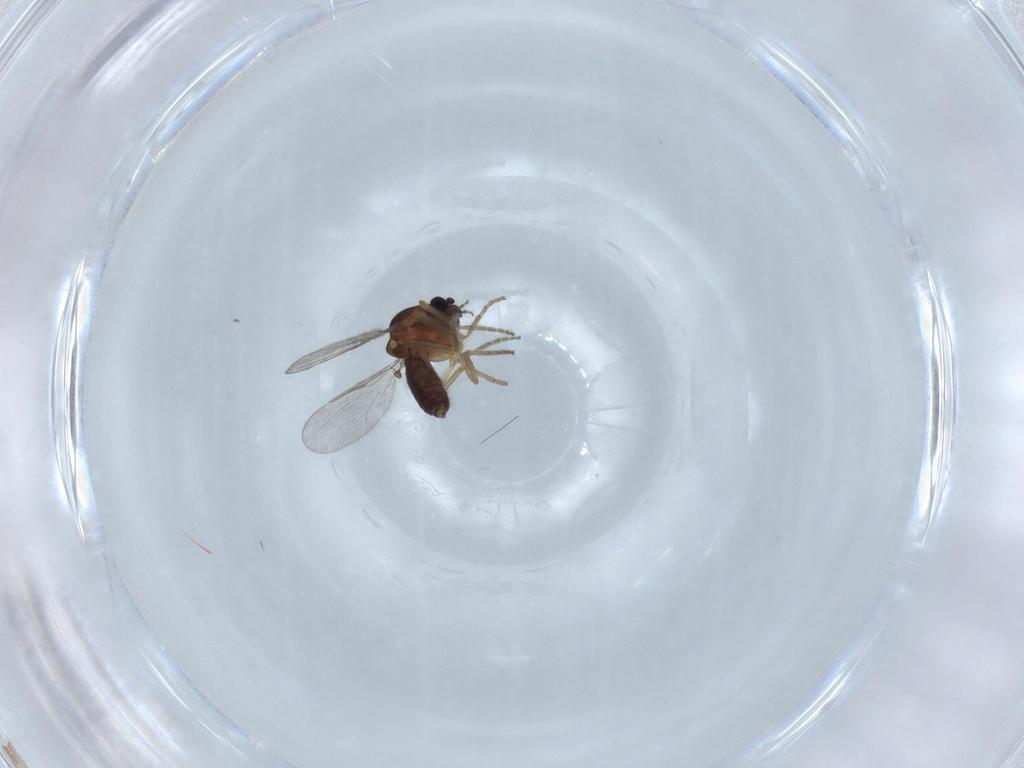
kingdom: Animalia
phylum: Arthropoda
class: Insecta
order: Diptera
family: Ceratopogonidae
